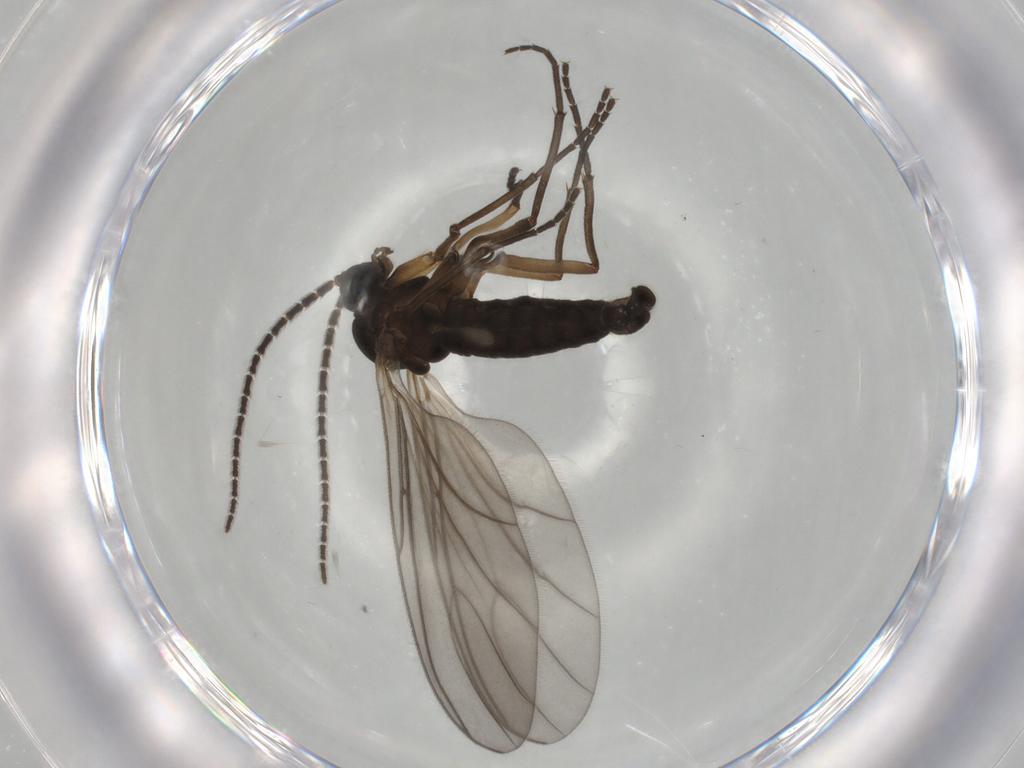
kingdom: Animalia
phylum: Arthropoda
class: Insecta
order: Diptera
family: Sciaridae
